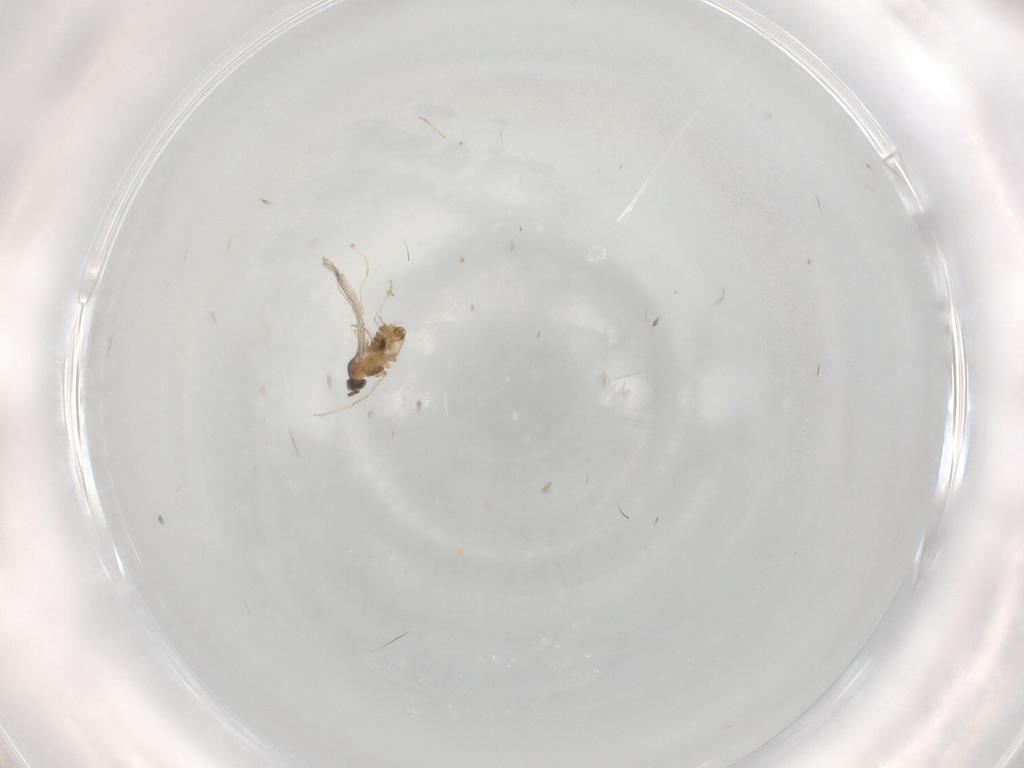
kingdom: Animalia
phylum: Arthropoda
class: Insecta
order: Diptera
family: Cecidomyiidae
